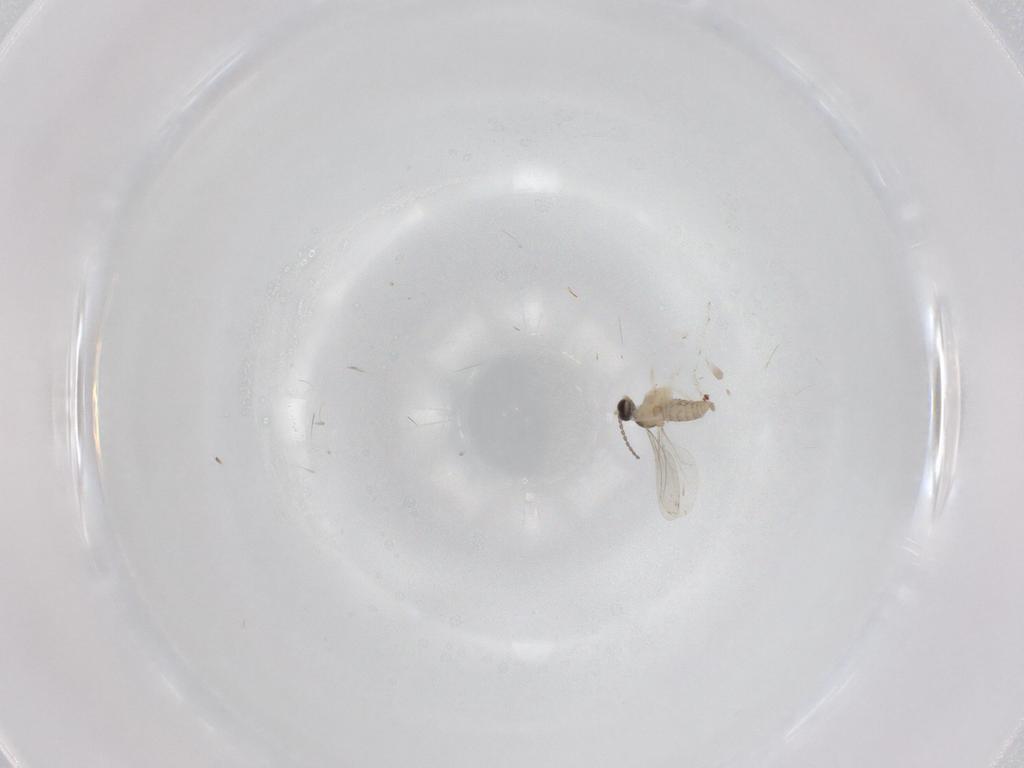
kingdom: Animalia
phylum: Arthropoda
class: Insecta
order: Diptera
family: Cecidomyiidae
